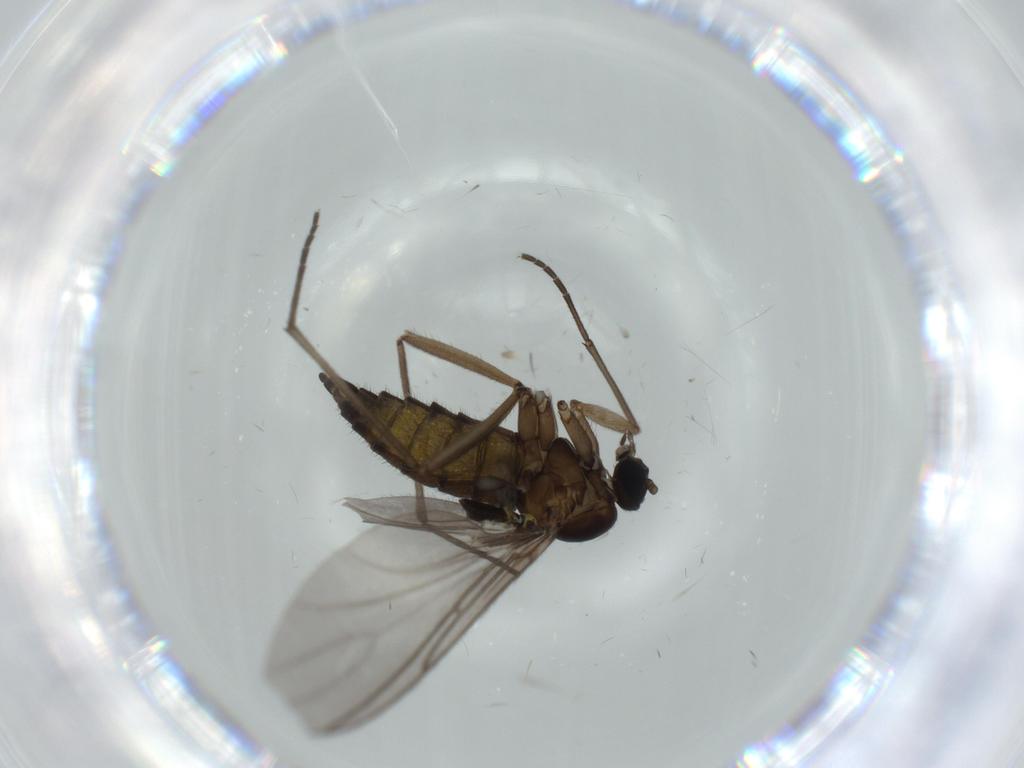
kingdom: Animalia
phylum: Arthropoda
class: Insecta
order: Diptera
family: Sciaridae
